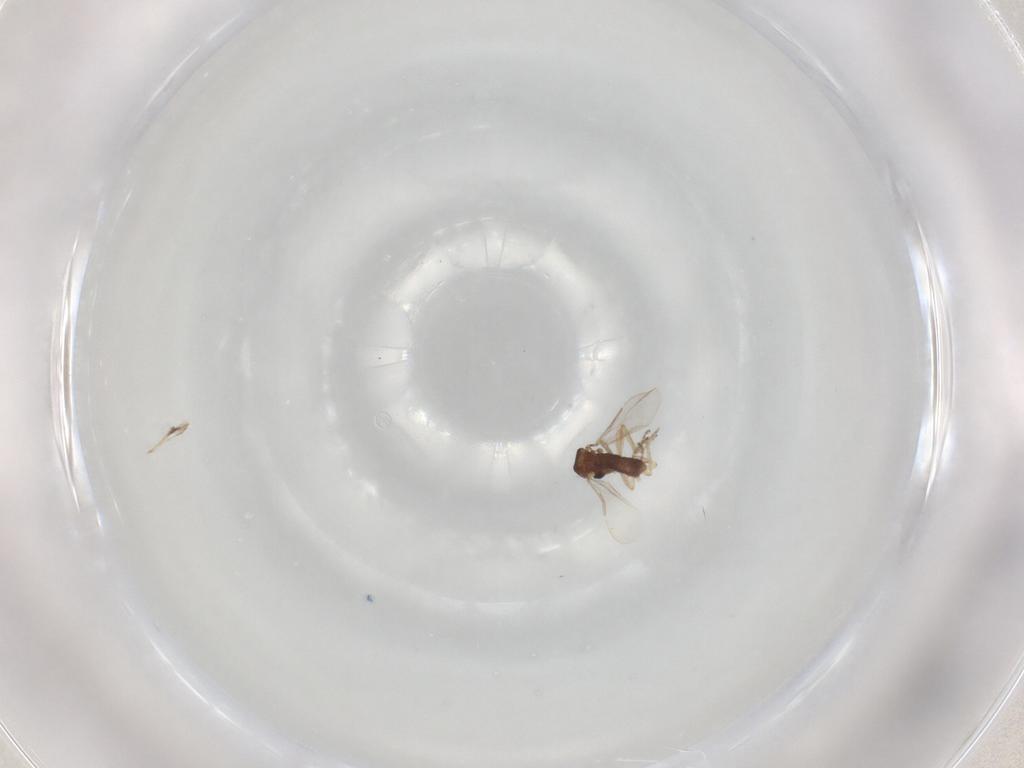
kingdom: Animalia
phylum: Arthropoda
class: Insecta
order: Diptera
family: Ceratopogonidae
